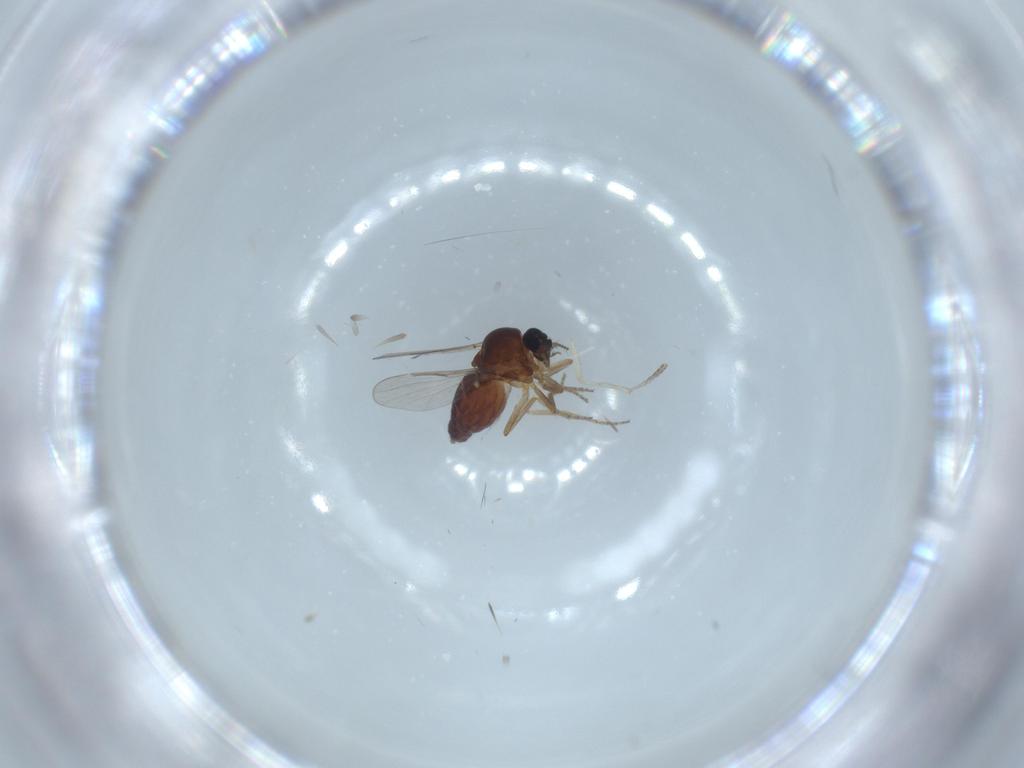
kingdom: Animalia
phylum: Arthropoda
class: Insecta
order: Diptera
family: Ceratopogonidae
